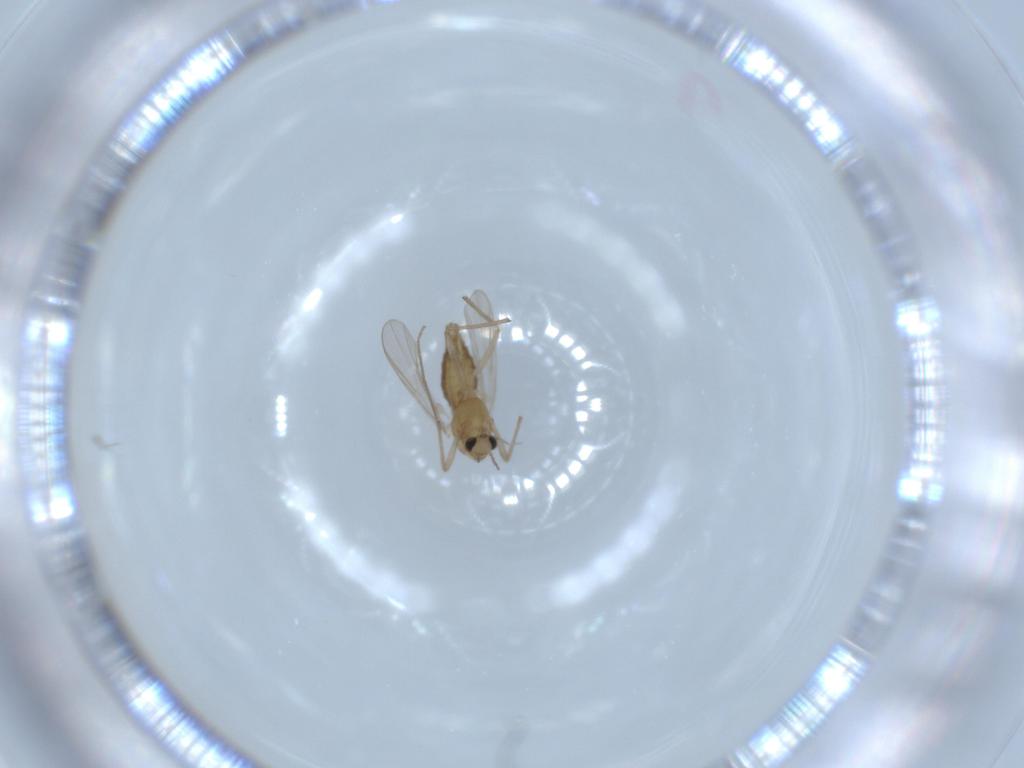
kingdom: Animalia
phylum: Arthropoda
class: Insecta
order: Diptera
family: Chironomidae
